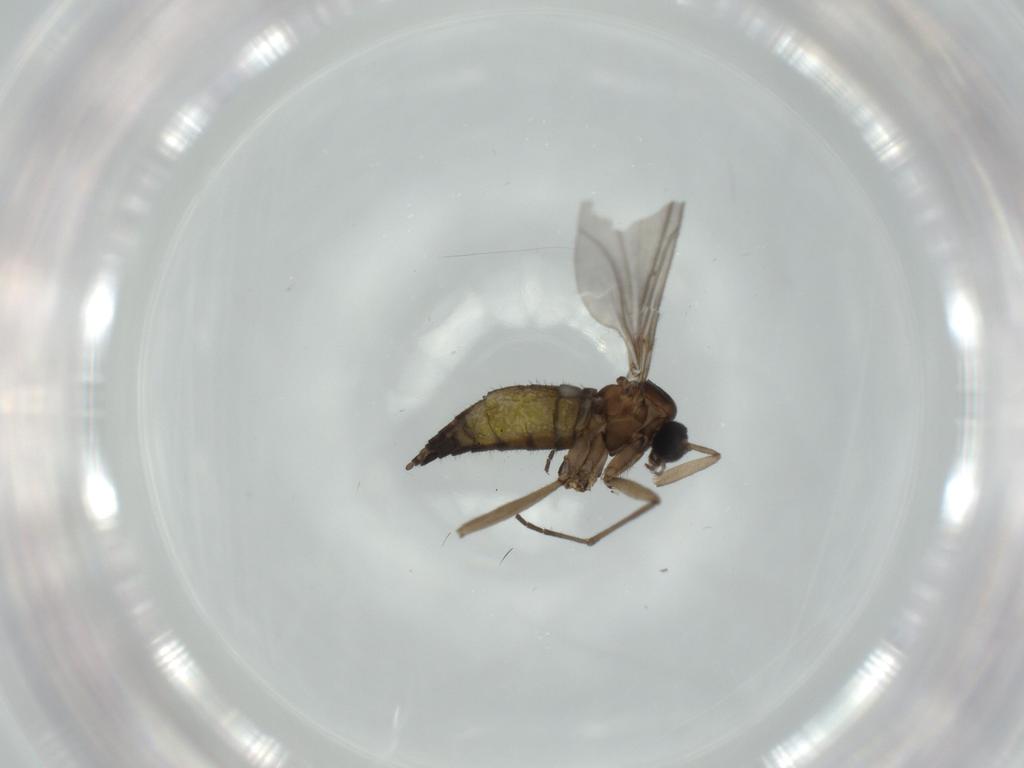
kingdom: Animalia
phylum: Arthropoda
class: Insecta
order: Diptera
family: Sciaridae
